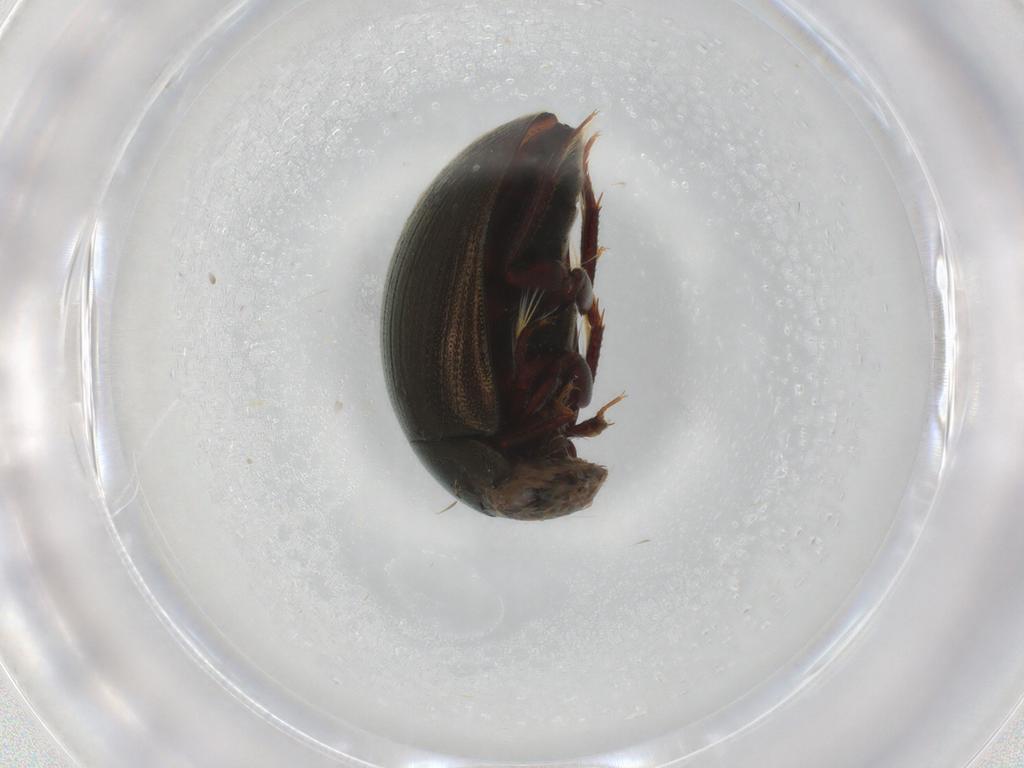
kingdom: Animalia
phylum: Arthropoda
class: Insecta
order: Coleoptera
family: Hydrophilidae
